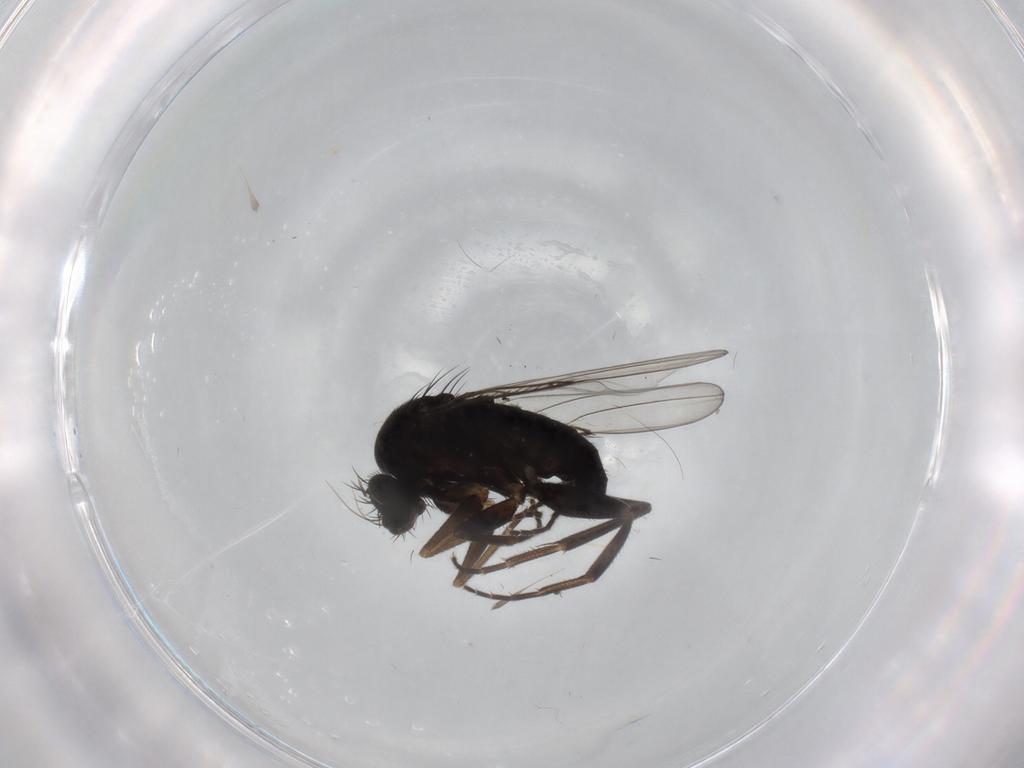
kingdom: Animalia
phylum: Arthropoda
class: Insecta
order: Diptera
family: Phoridae
